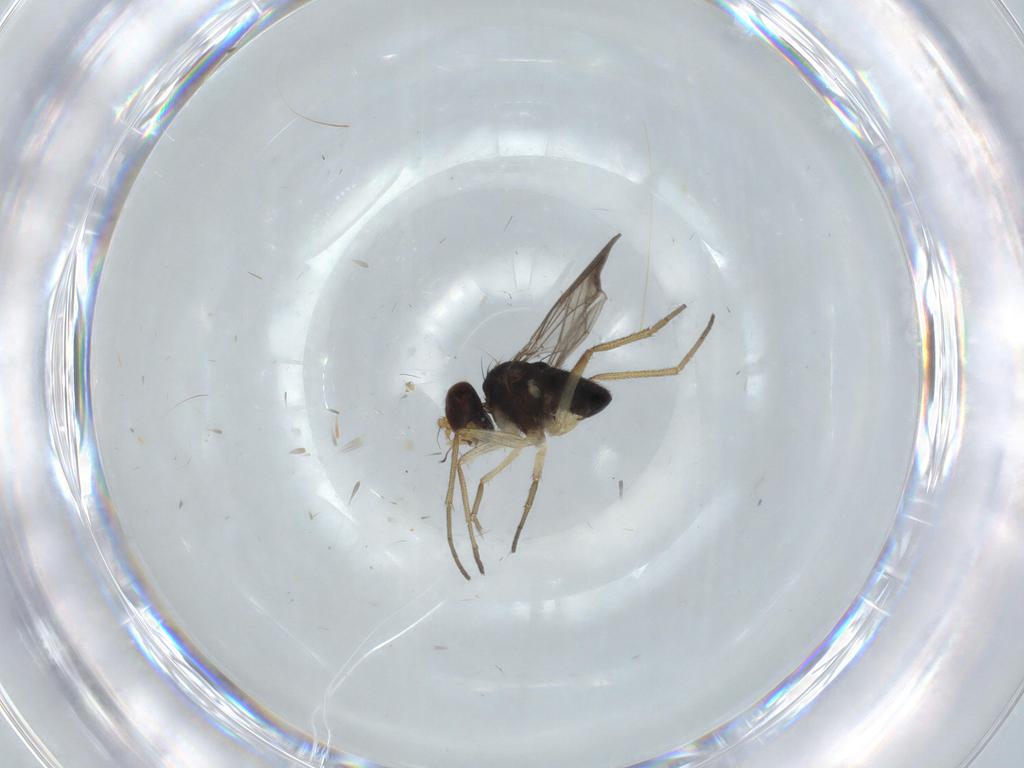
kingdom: Animalia
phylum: Arthropoda
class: Insecta
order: Diptera
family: Dolichopodidae
